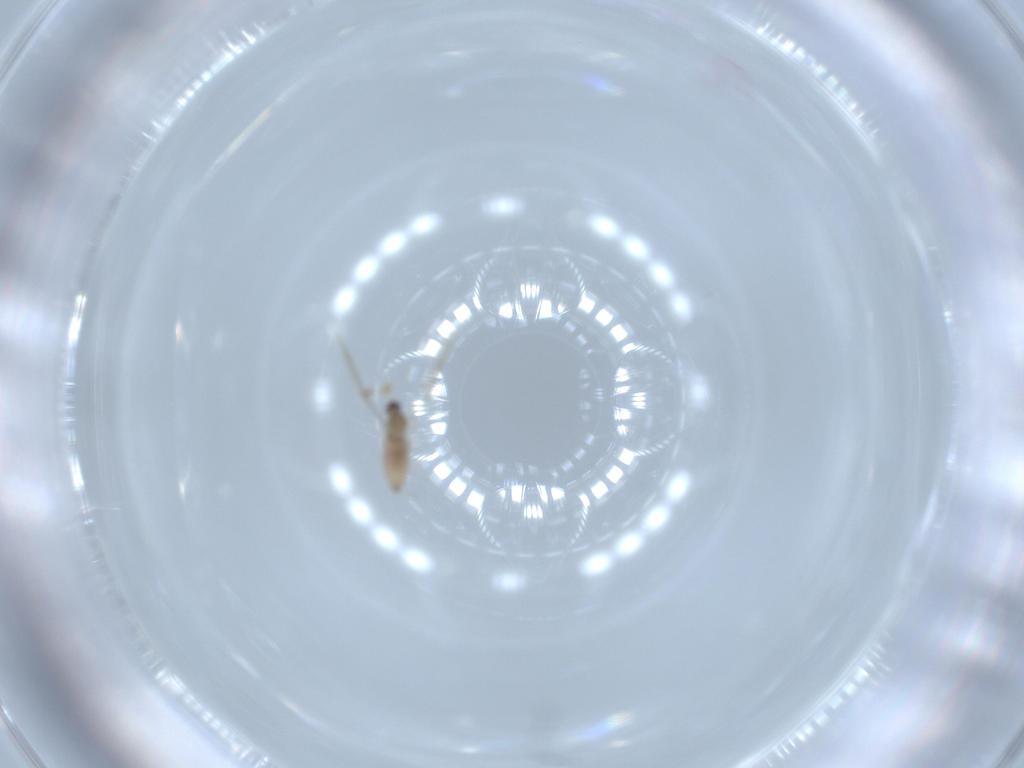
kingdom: Animalia
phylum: Arthropoda
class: Insecta
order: Diptera
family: Cecidomyiidae
